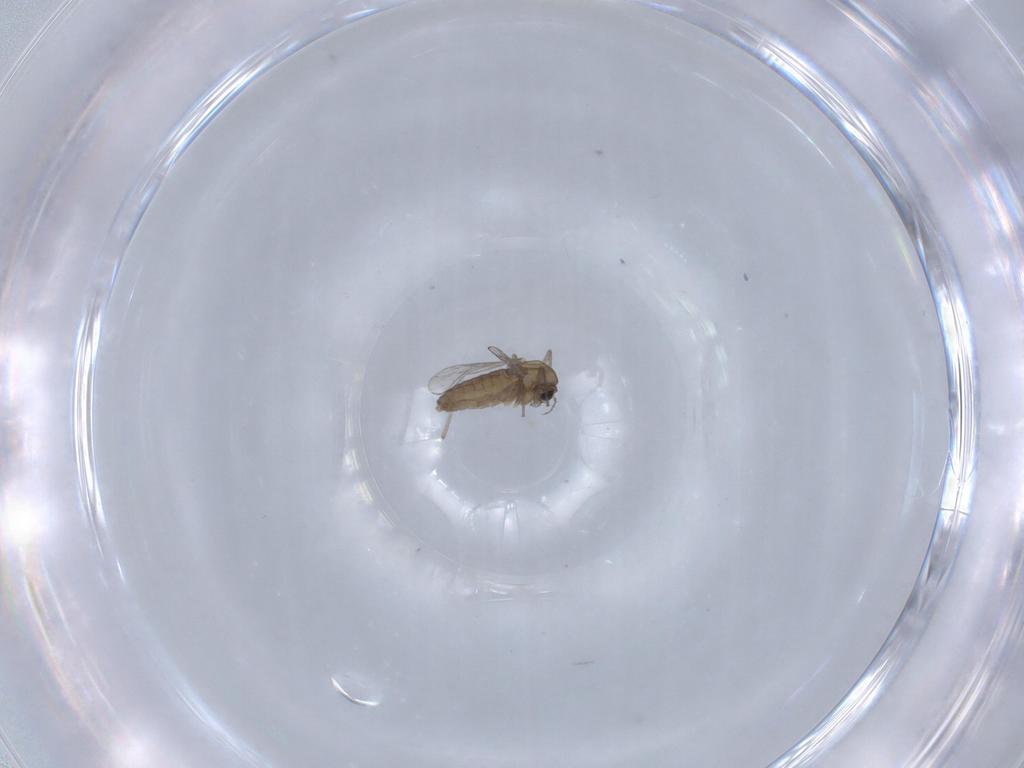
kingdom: Animalia
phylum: Arthropoda
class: Insecta
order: Diptera
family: Chironomidae
